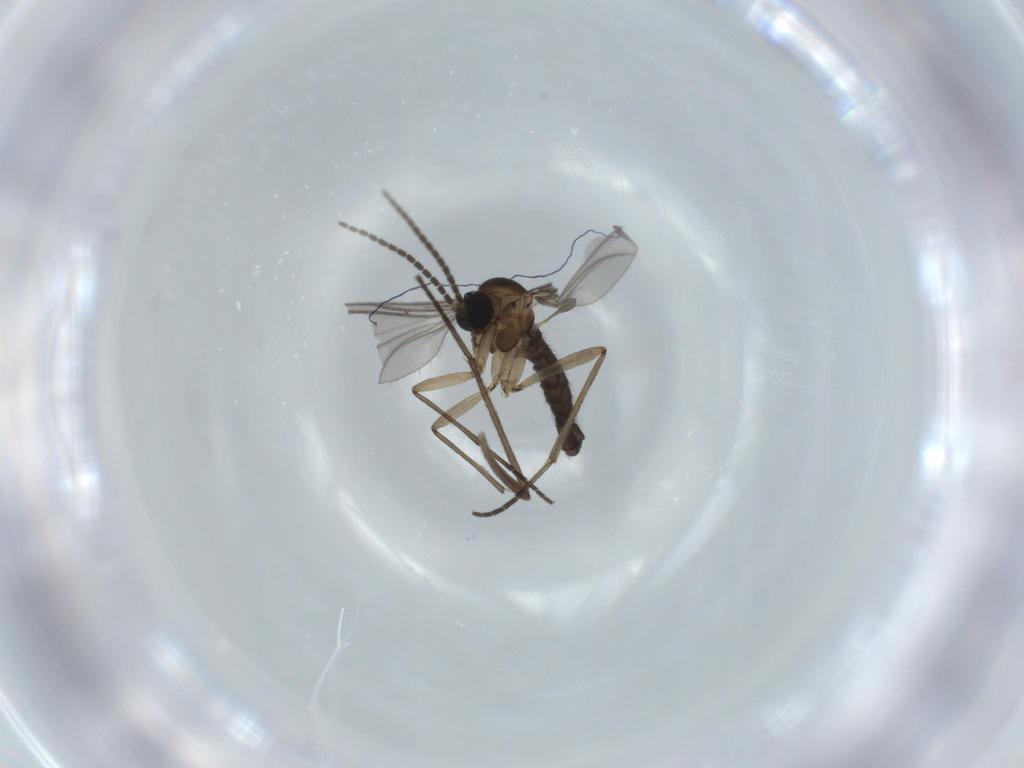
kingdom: Animalia
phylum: Arthropoda
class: Insecta
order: Diptera
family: Sciaridae
